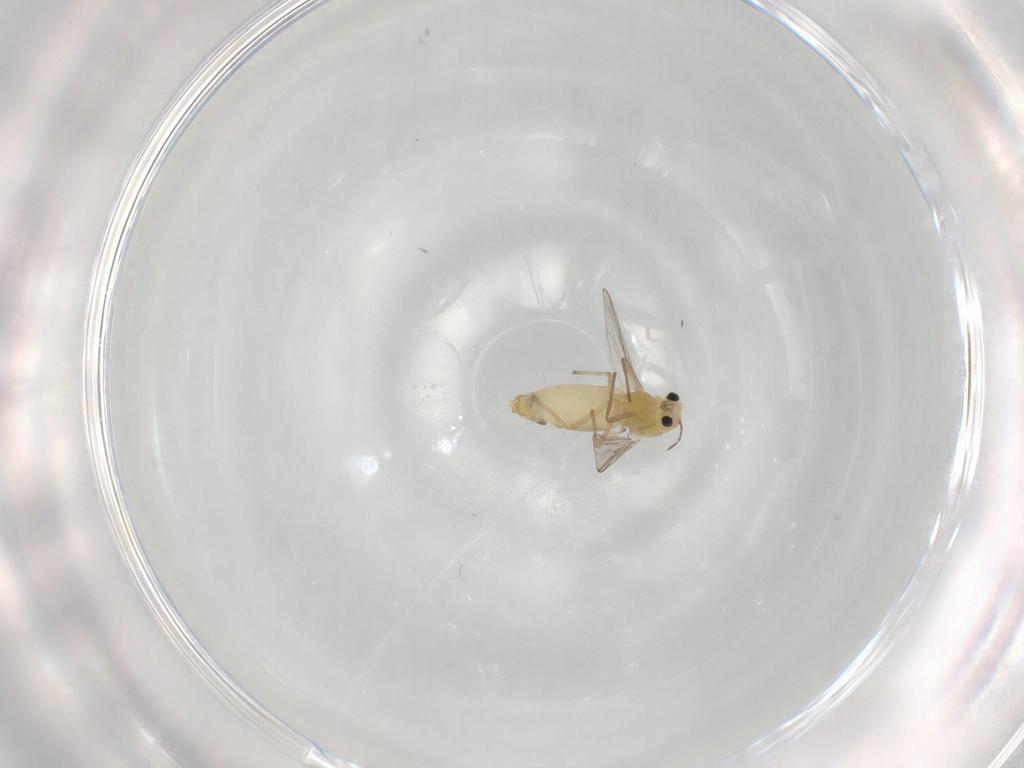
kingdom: Animalia
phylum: Arthropoda
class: Insecta
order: Diptera
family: Chironomidae
